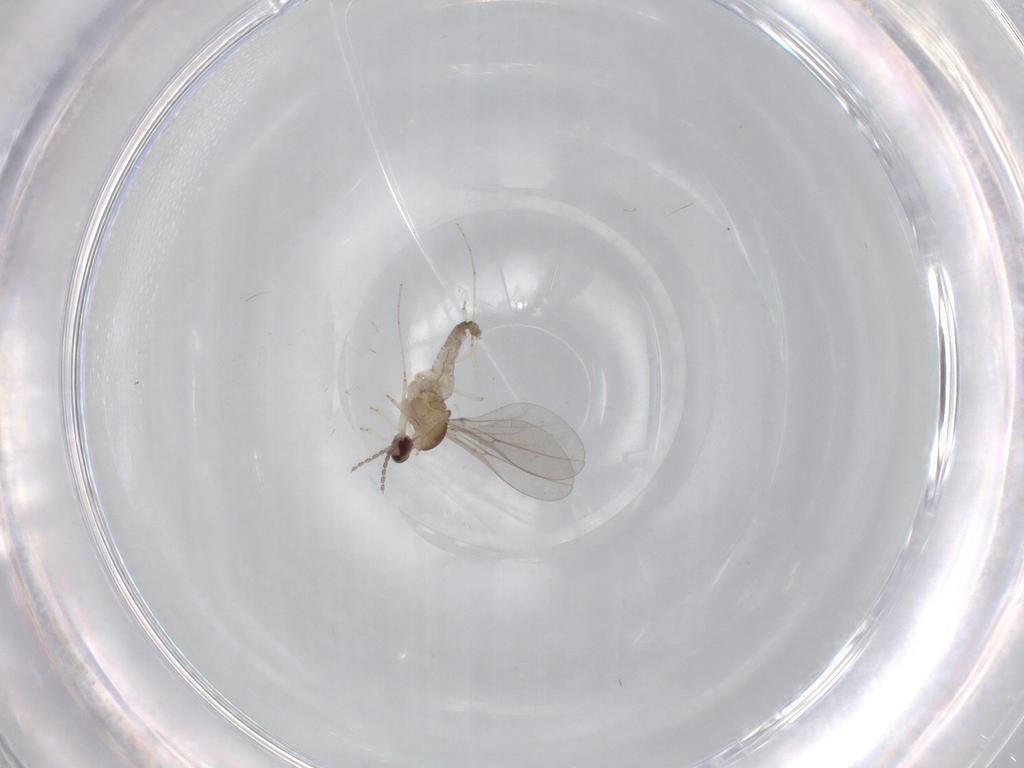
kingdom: Animalia
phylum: Arthropoda
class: Insecta
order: Diptera
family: Cecidomyiidae
